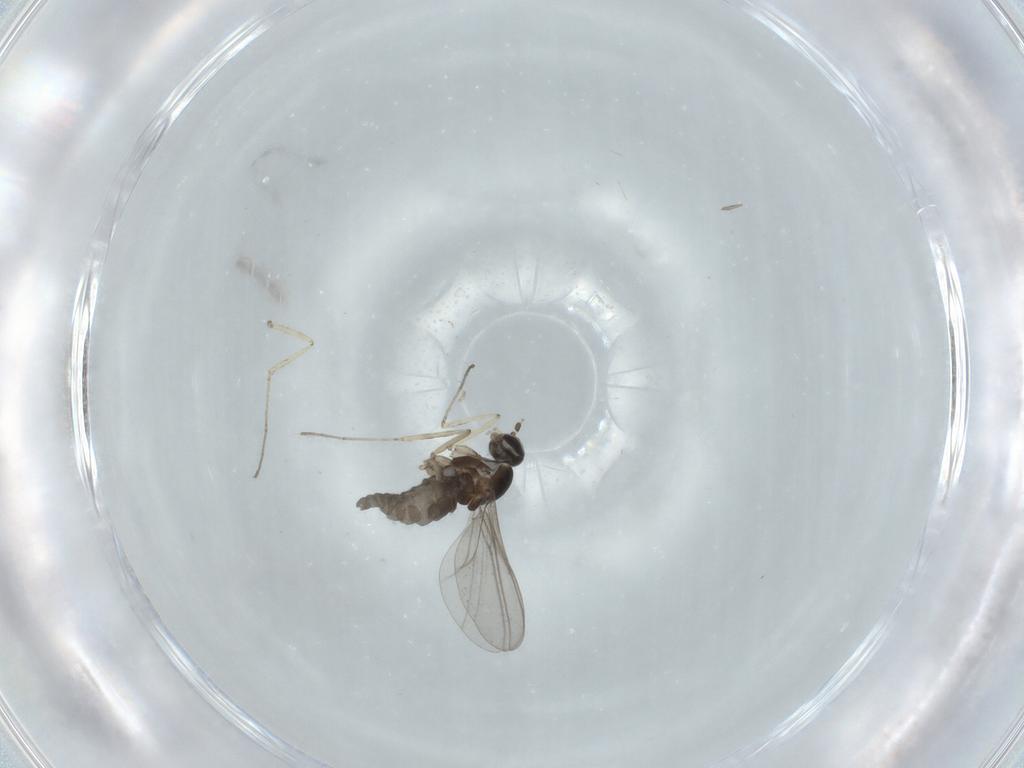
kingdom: Animalia
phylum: Arthropoda
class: Insecta
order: Diptera
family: Cecidomyiidae
